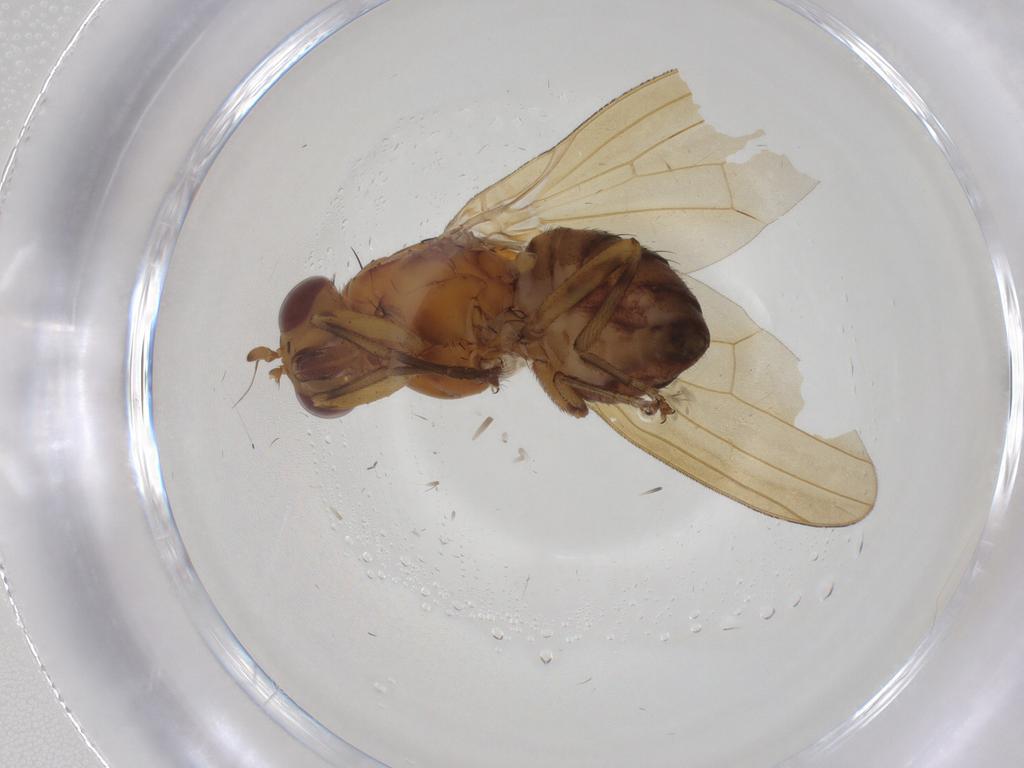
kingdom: Animalia
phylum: Arthropoda
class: Insecta
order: Diptera
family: Lauxaniidae
